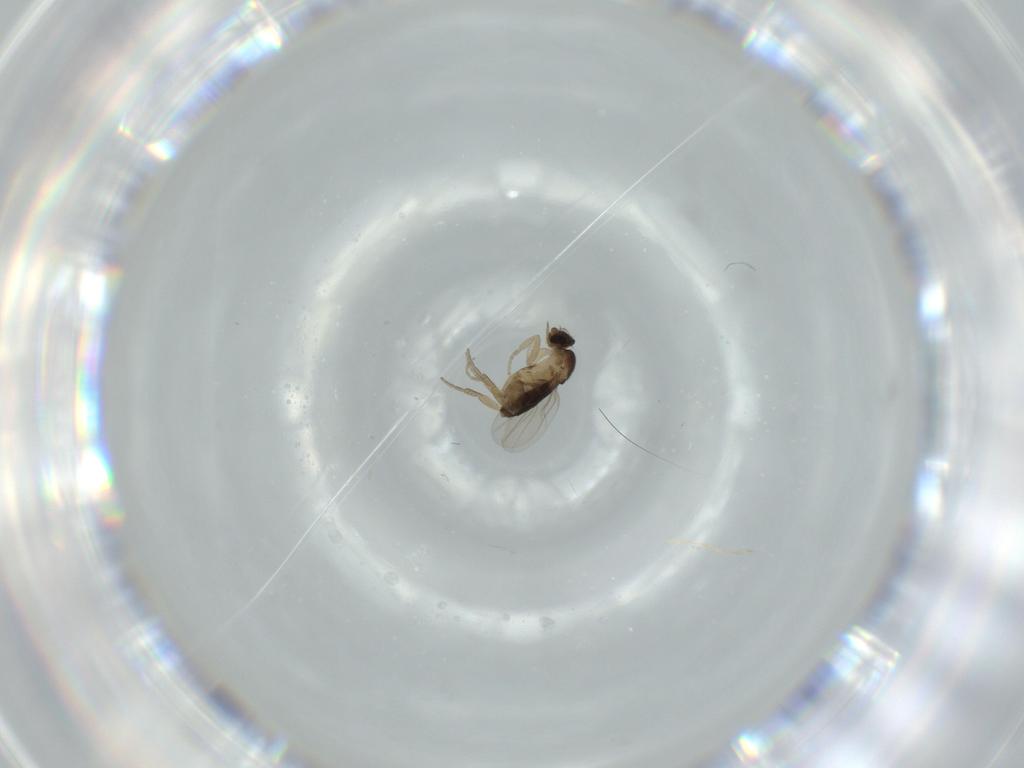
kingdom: Animalia
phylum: Arthropoda
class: Insecta
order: Diptera
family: Phoridae
